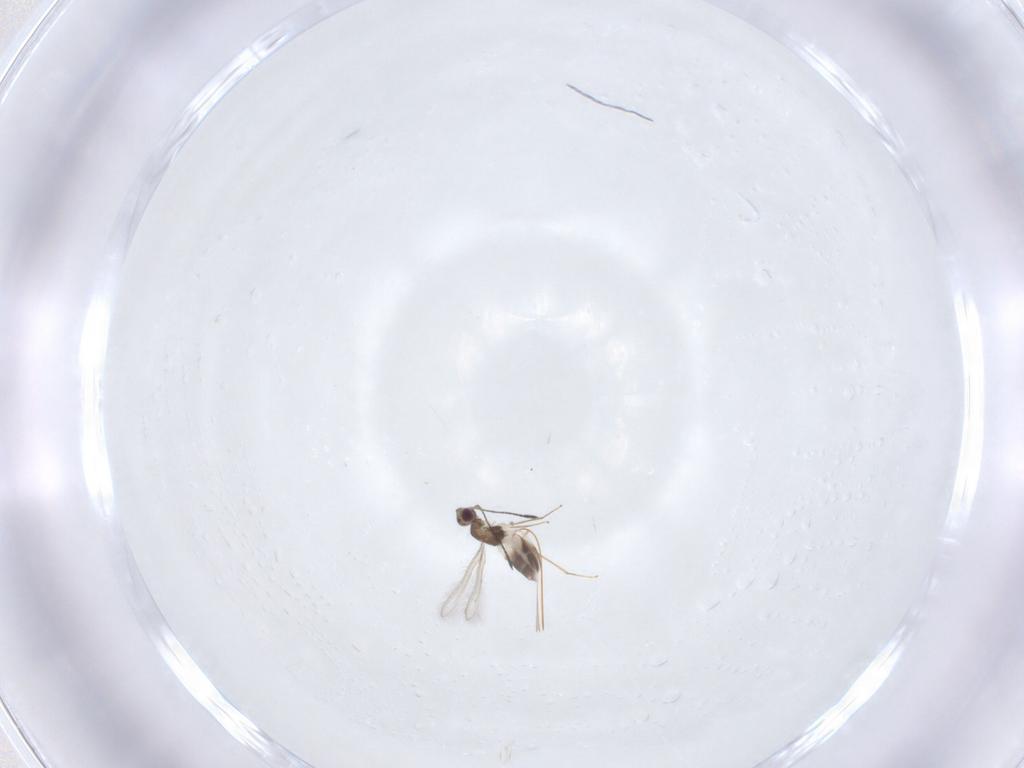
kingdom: Animalia
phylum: Arthropoda
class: Insecta
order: Hymenoptera
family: Mymaridae
